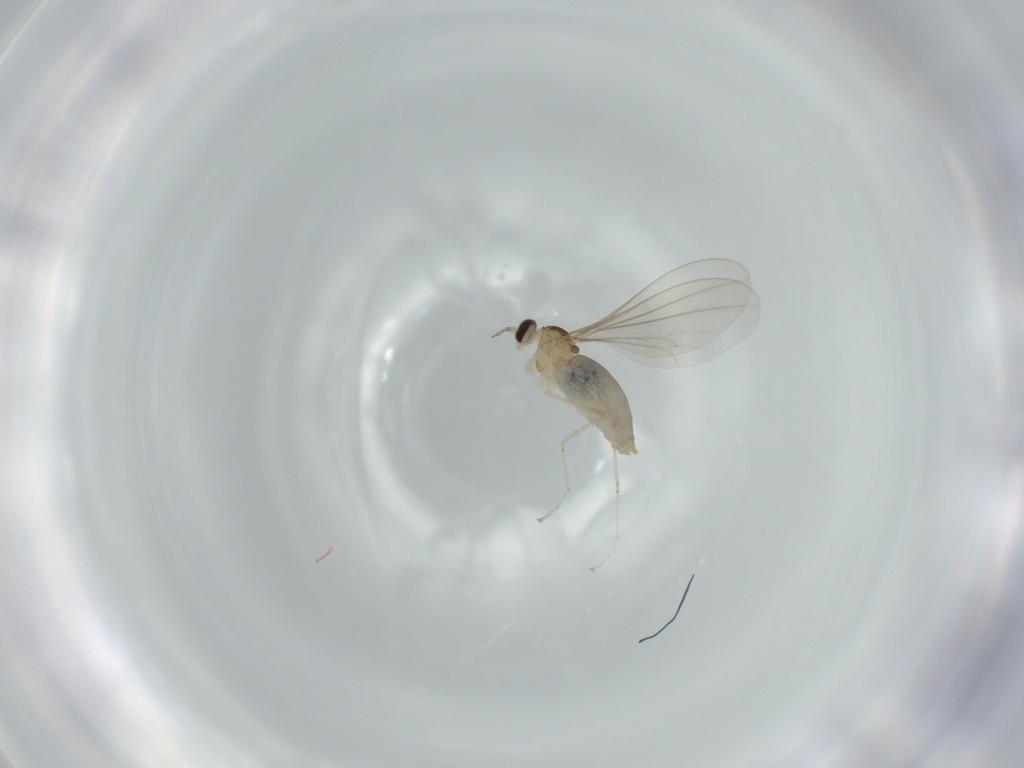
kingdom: Animalia
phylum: Arthropoda
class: Insecta
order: Diptera
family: Cecidomyiidae
